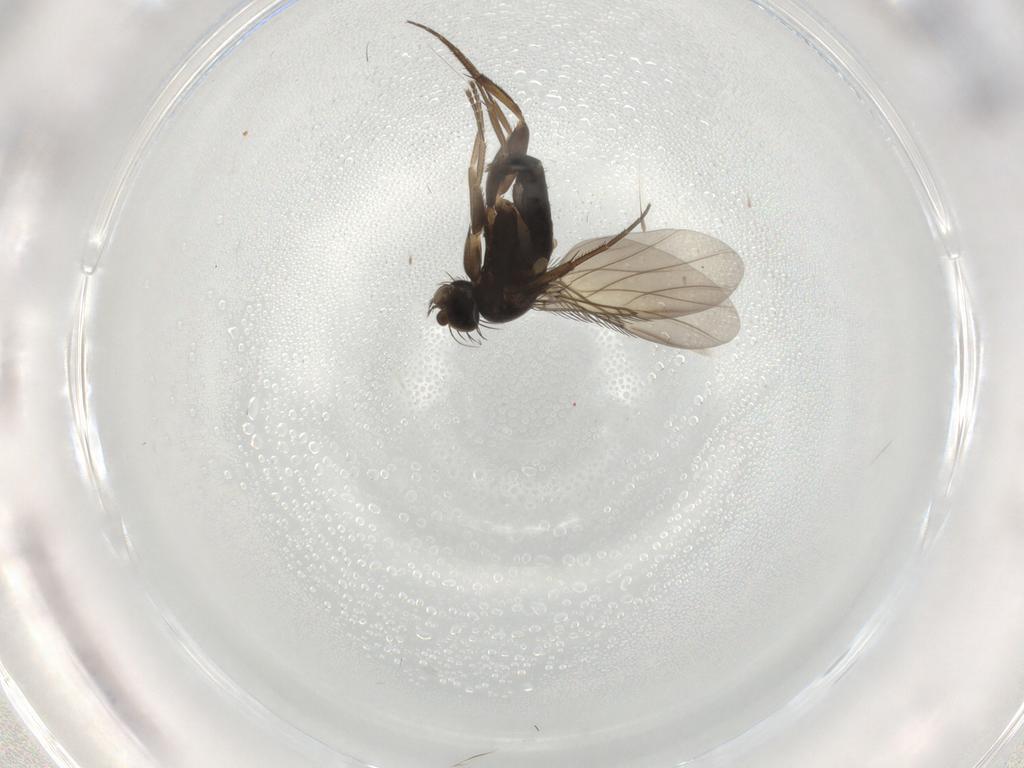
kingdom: Animalia
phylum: Arthropoda
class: Insecta
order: Diptera
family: Phoridae
